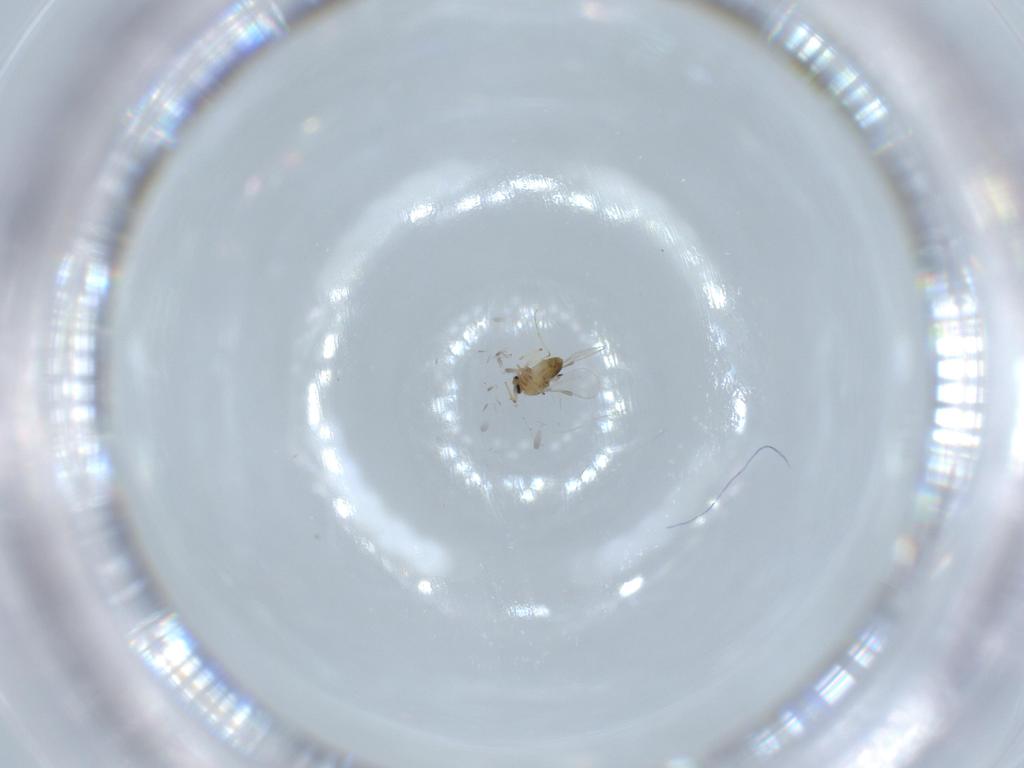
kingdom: Animalia
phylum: Arthropoda
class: Insecta
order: Diptera
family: Chironomidae
